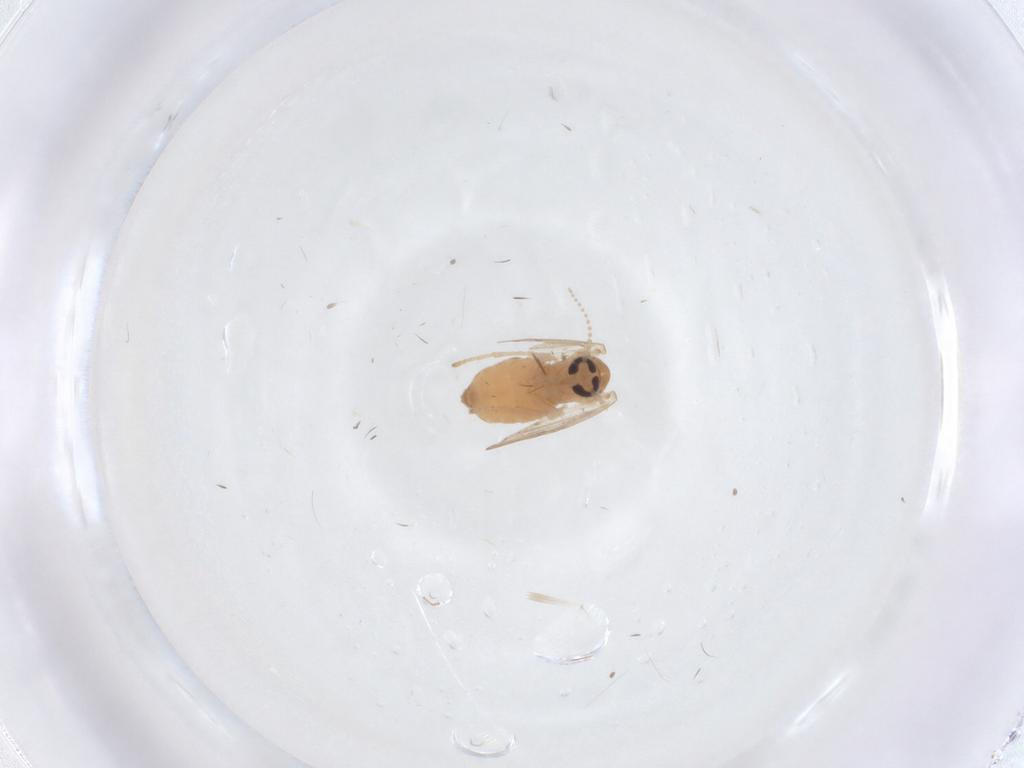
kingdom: Animalia
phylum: Arthropoda
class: Insecta
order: Diptera
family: Psychodidae
